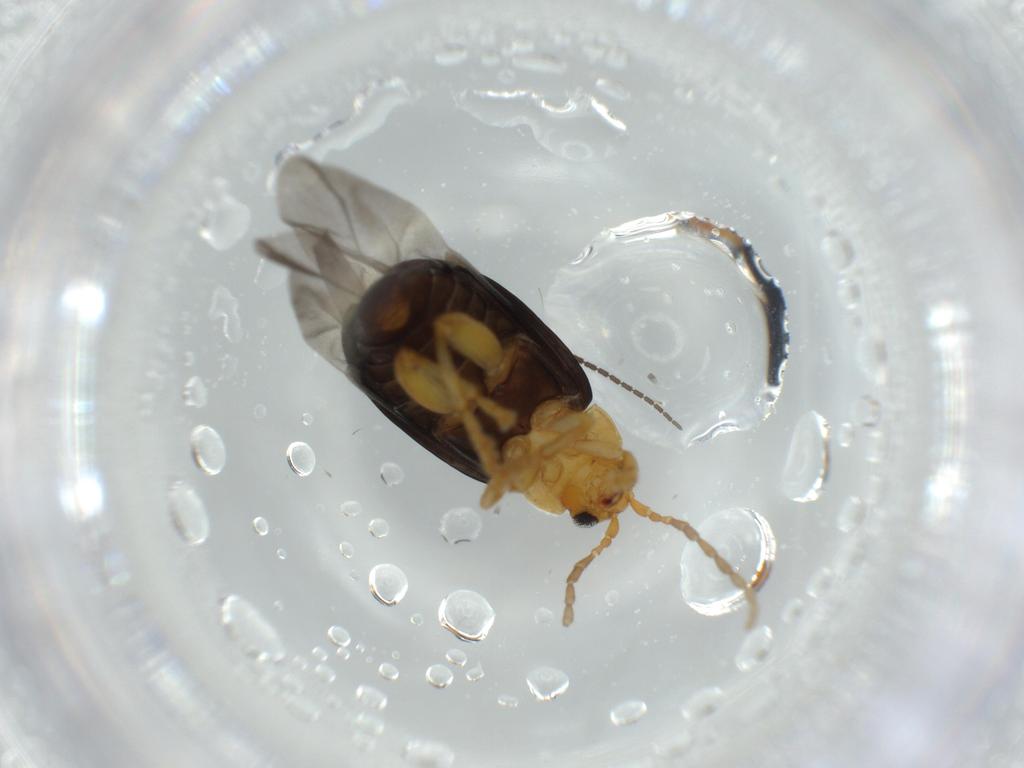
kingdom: Animalia
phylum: Arthropoda
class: Insecta
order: Coleoptera
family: Chrysomelidae
